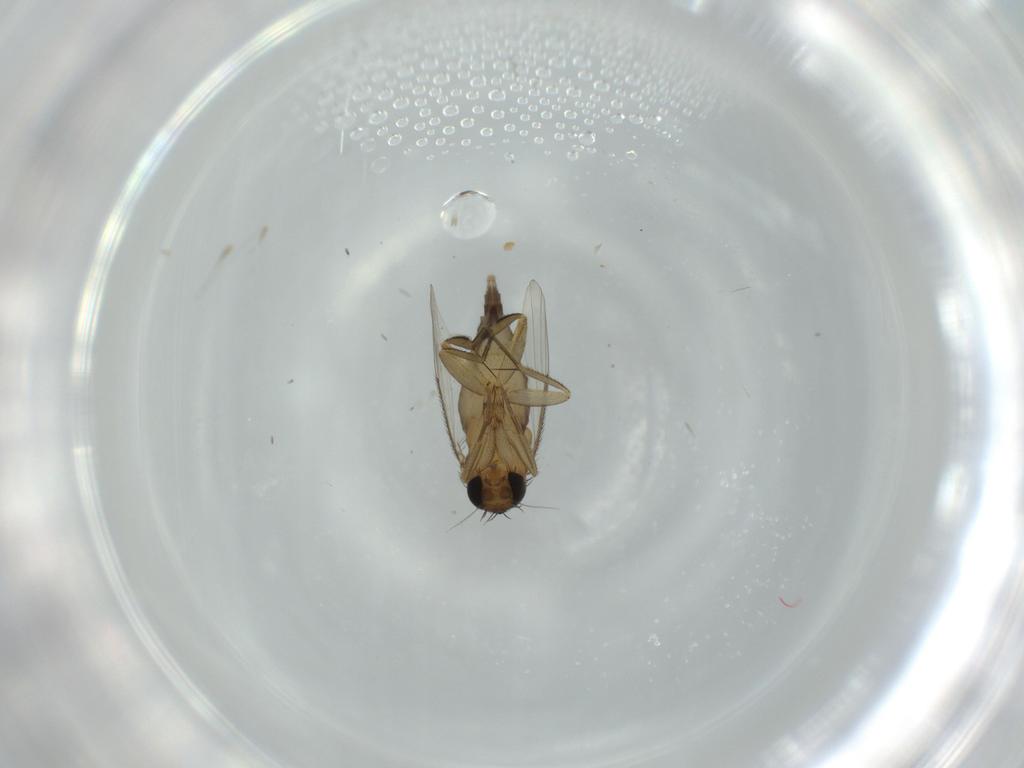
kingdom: Animalia
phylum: Arthropoda
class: Insecta
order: Diptera
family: Phoridae
